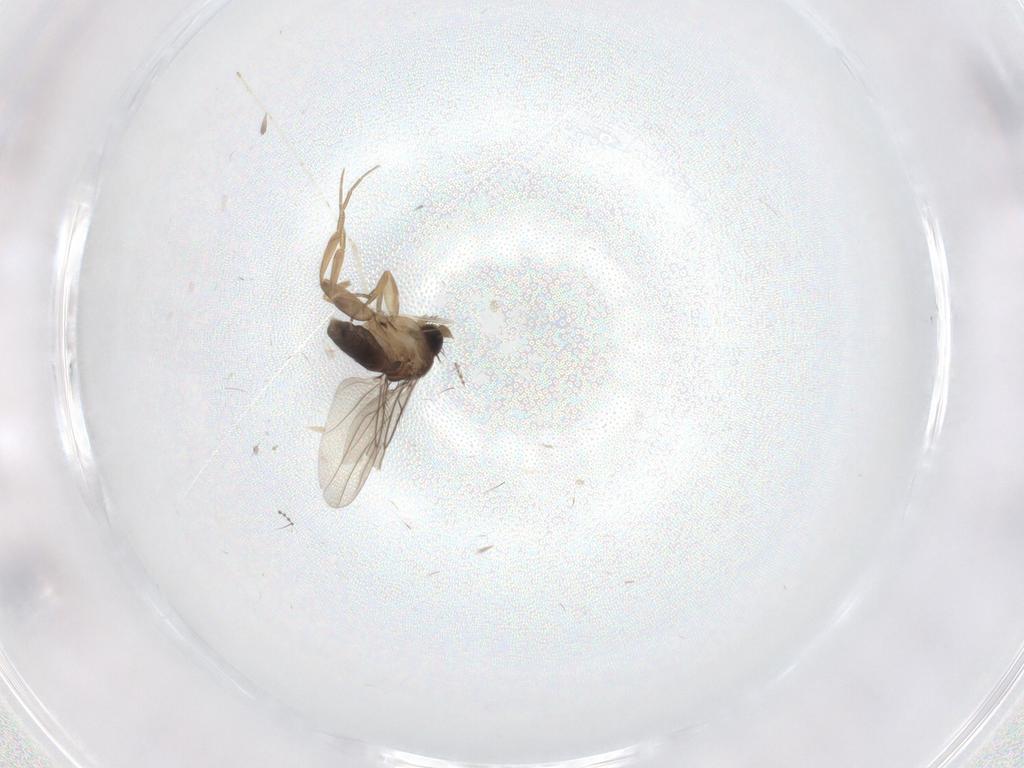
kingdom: Animalia
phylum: Arthropoda
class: Insecta
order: Diptera
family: Cecidomyiidae
